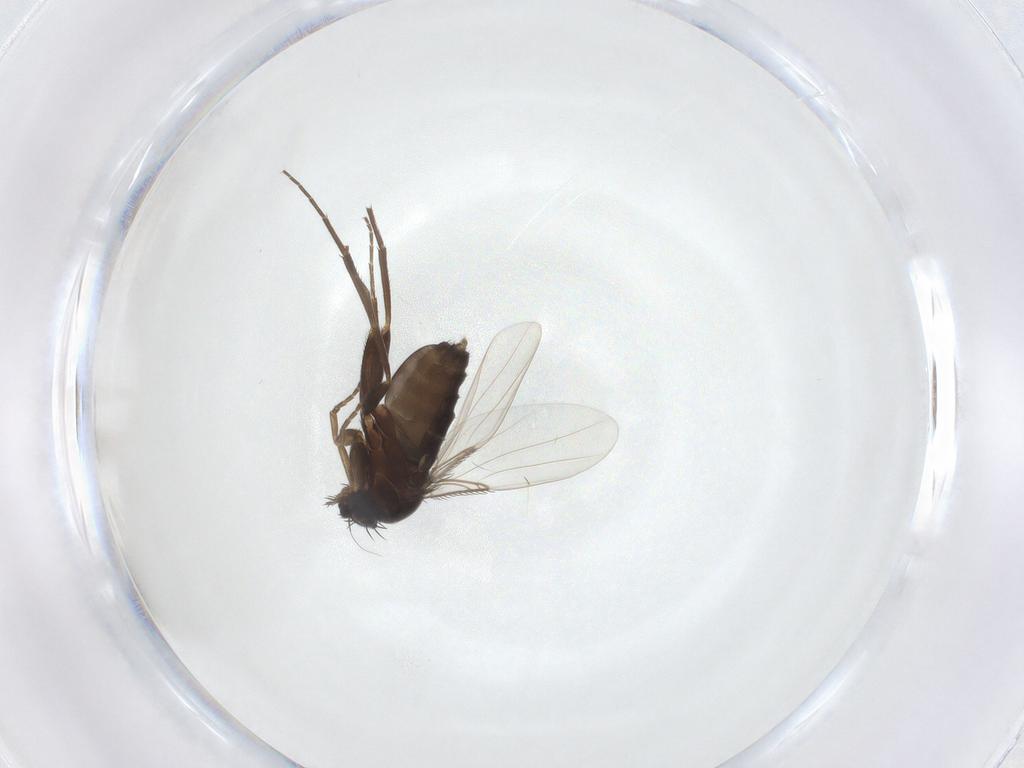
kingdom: Animalia
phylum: Arthropoda
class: Insecta
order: Diptera
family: Phoridae
